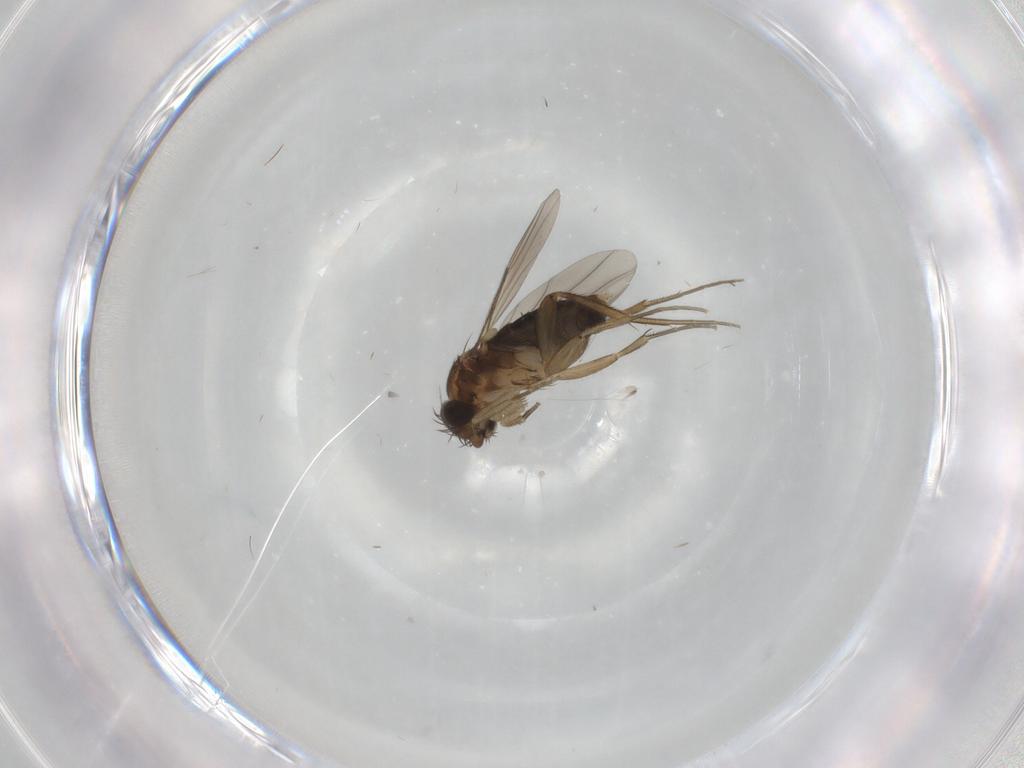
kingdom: Animalia
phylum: Arthropoda
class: Insecta
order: Diptera
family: Phoridae
